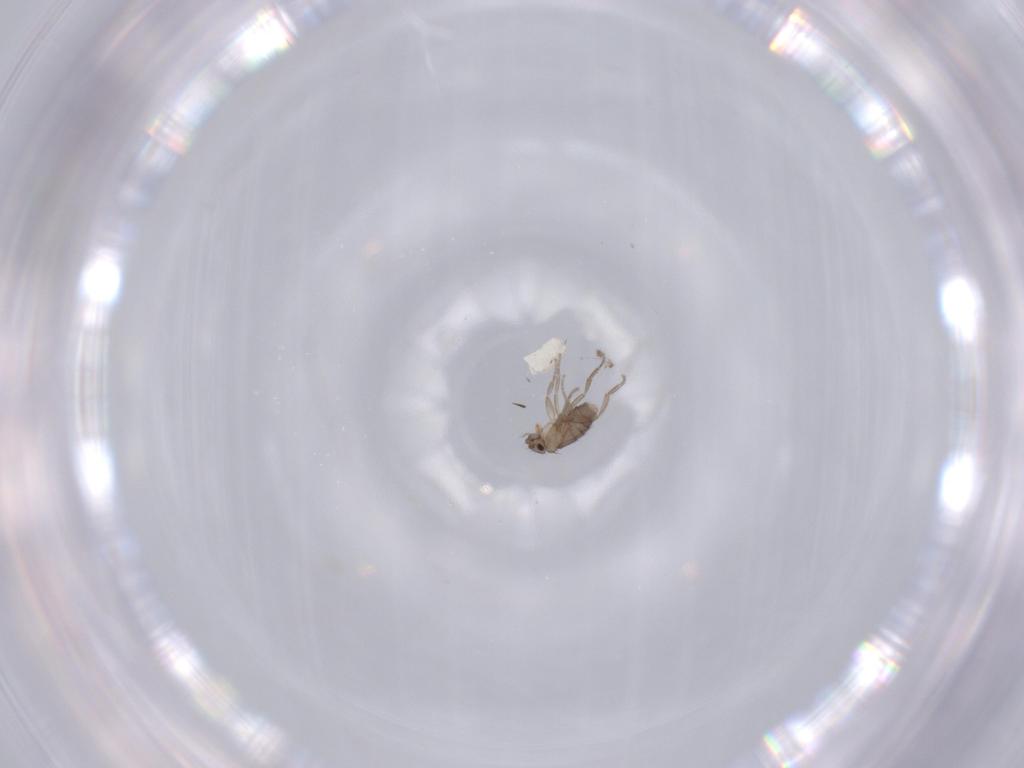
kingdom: Animalia
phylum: Arthropoda
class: Insecta
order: Diptera
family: Phoridae
